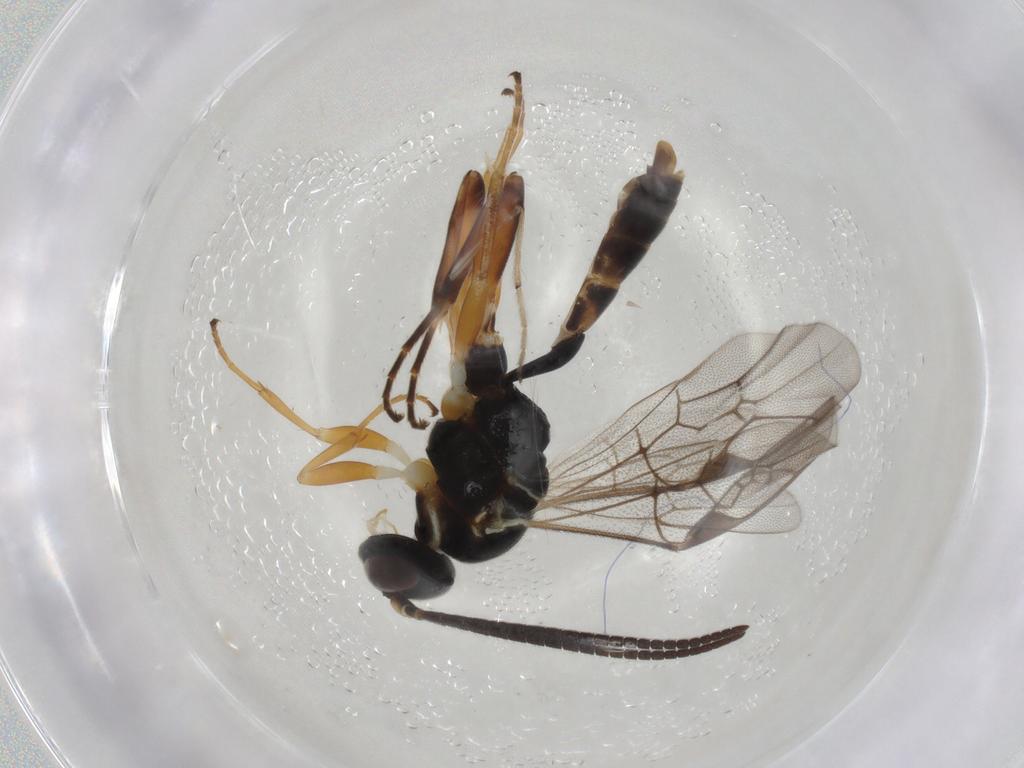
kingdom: Animalia
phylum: Arthropoda
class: Insecta
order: Diptera
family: Chironomidae
